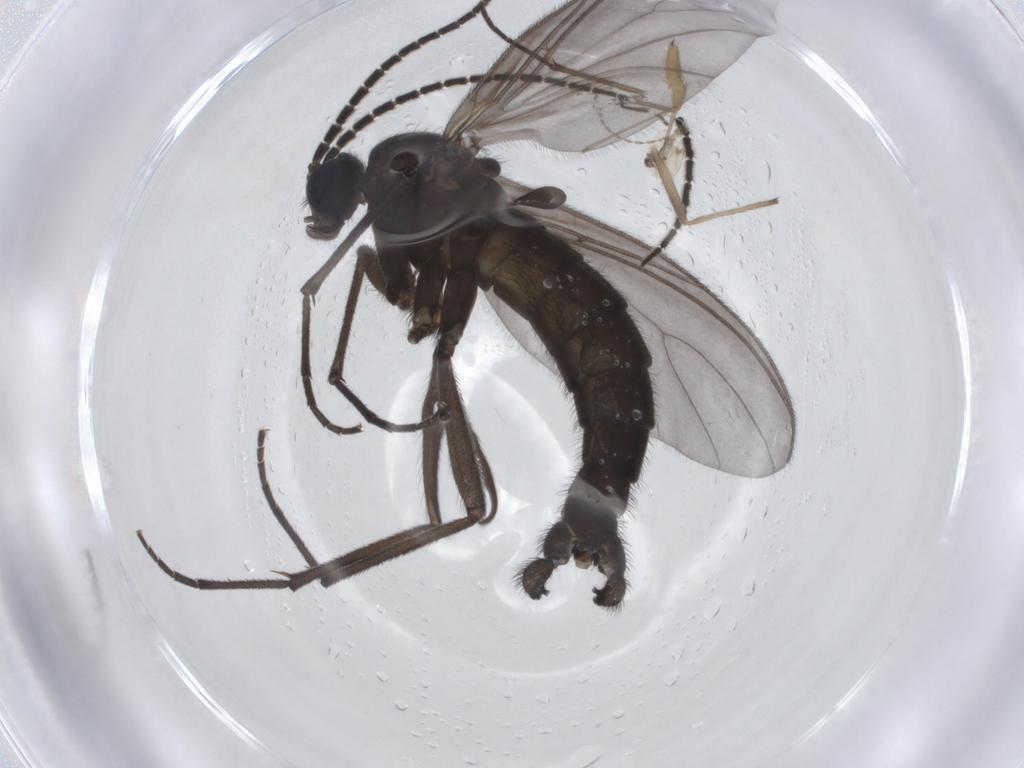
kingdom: Animalia
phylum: Arthropoda
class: Insecta
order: Diptera
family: Cecidomyiidae
